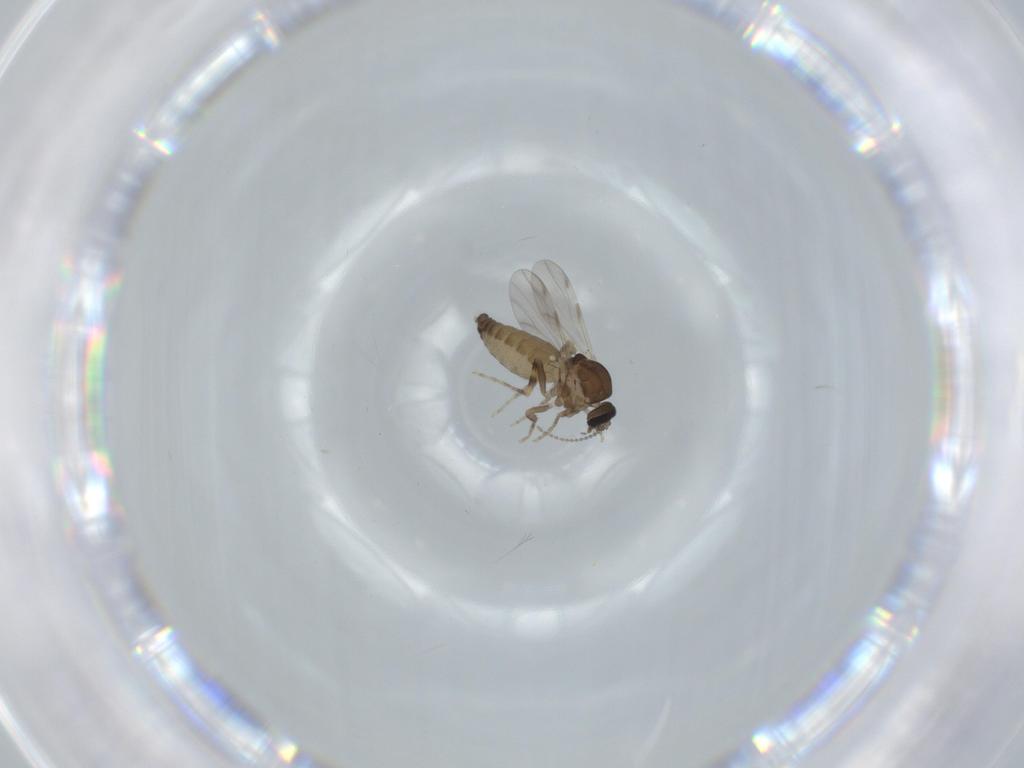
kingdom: Animalia
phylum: Arthropoda
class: Insecta
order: Diptera
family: Ceratopogonidae
